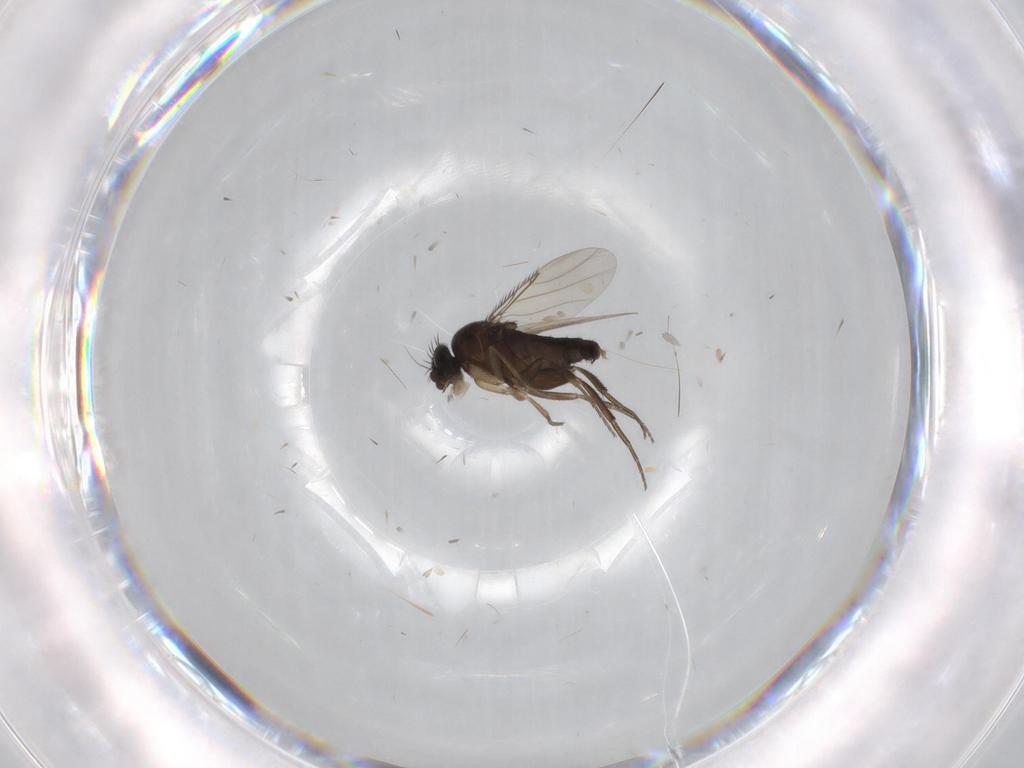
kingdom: Animalia
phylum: Arthropoda
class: Insecta
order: Diptera
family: Phoridae
